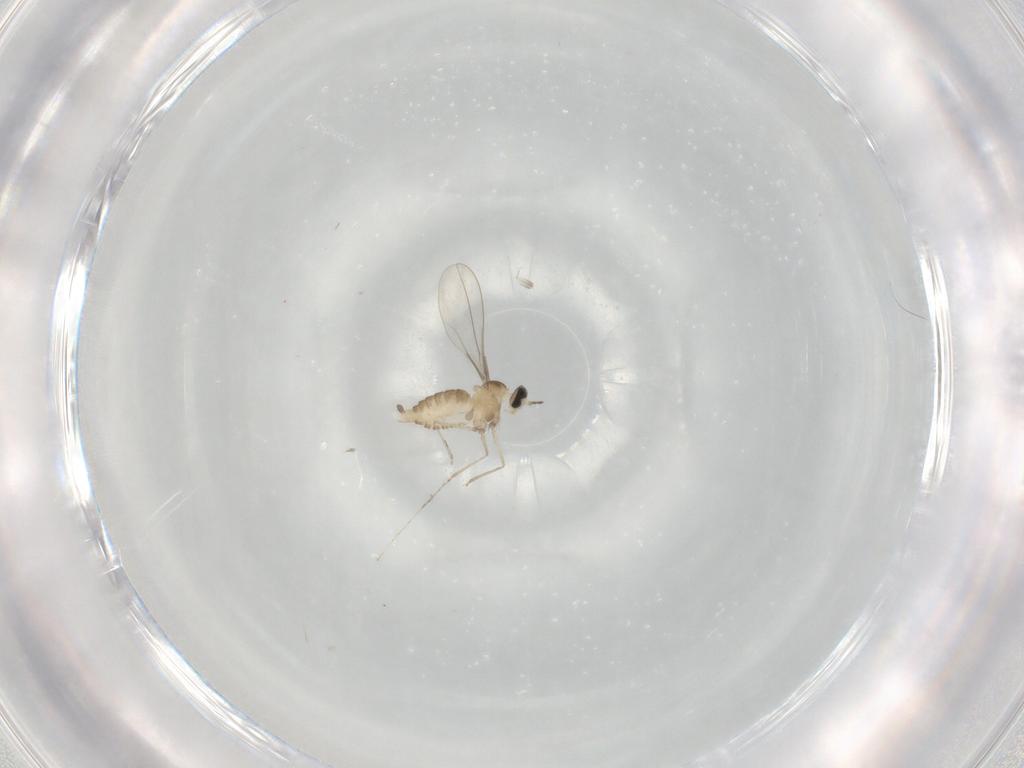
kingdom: Animalia
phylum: Arthropoda
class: Insecta
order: Diptera
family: Cecidomyiidae
